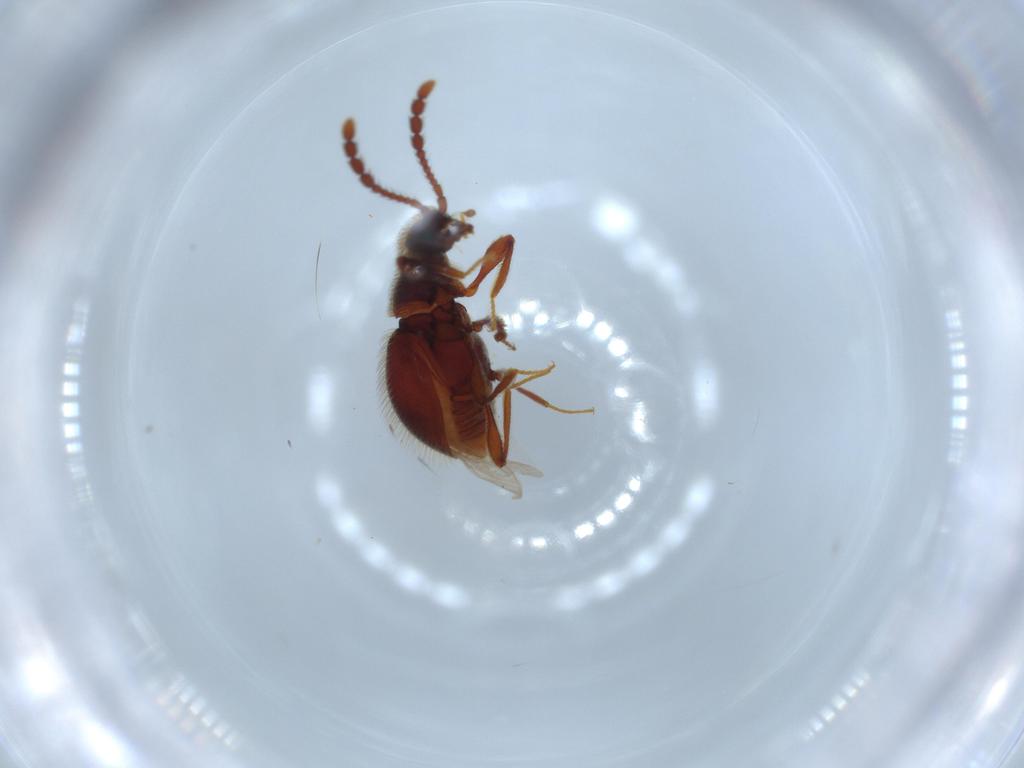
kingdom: Animalia
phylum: Arthropoda
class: Insecta
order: Coleoptera
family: Staphylinidae
